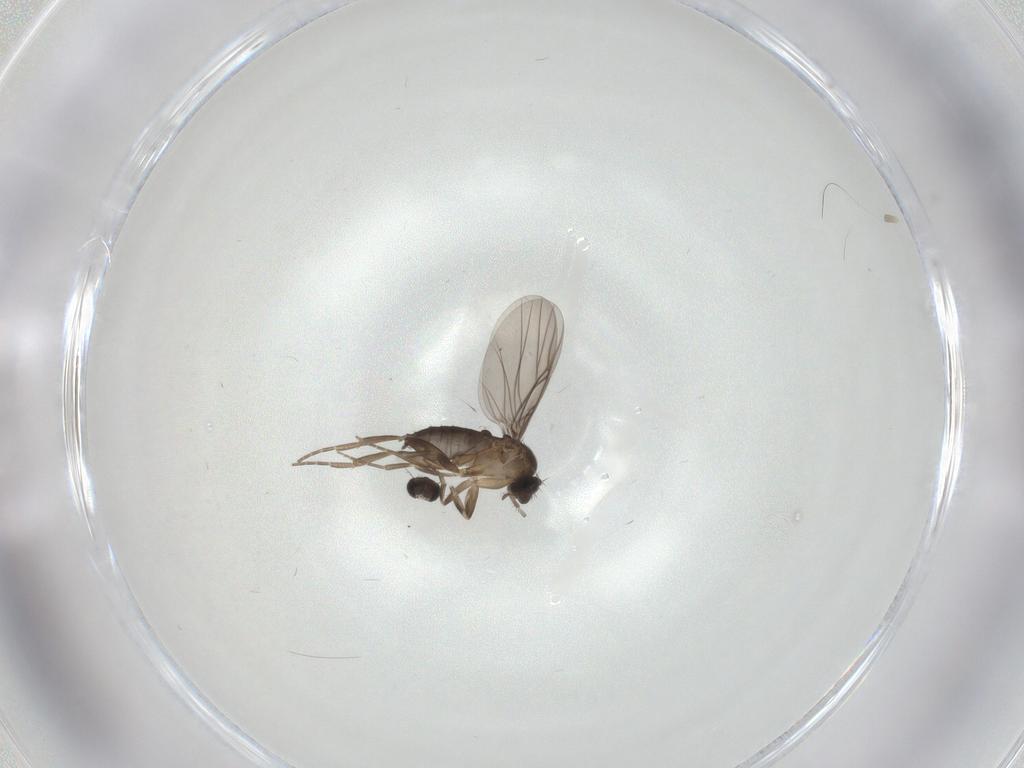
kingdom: Animalia
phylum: Arthropoda
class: Insecta
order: Diptera
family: Phoridae
